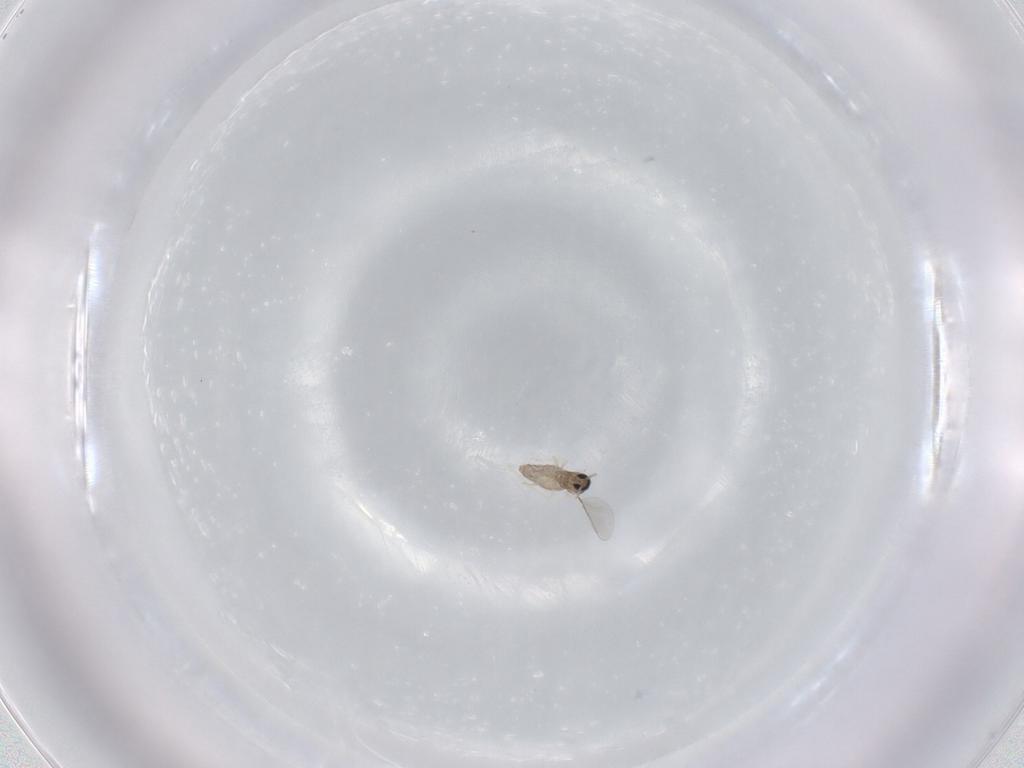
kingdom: Animalia
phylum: Arthropoda
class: Insecta
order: Diptera
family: Cecidomyiidae
